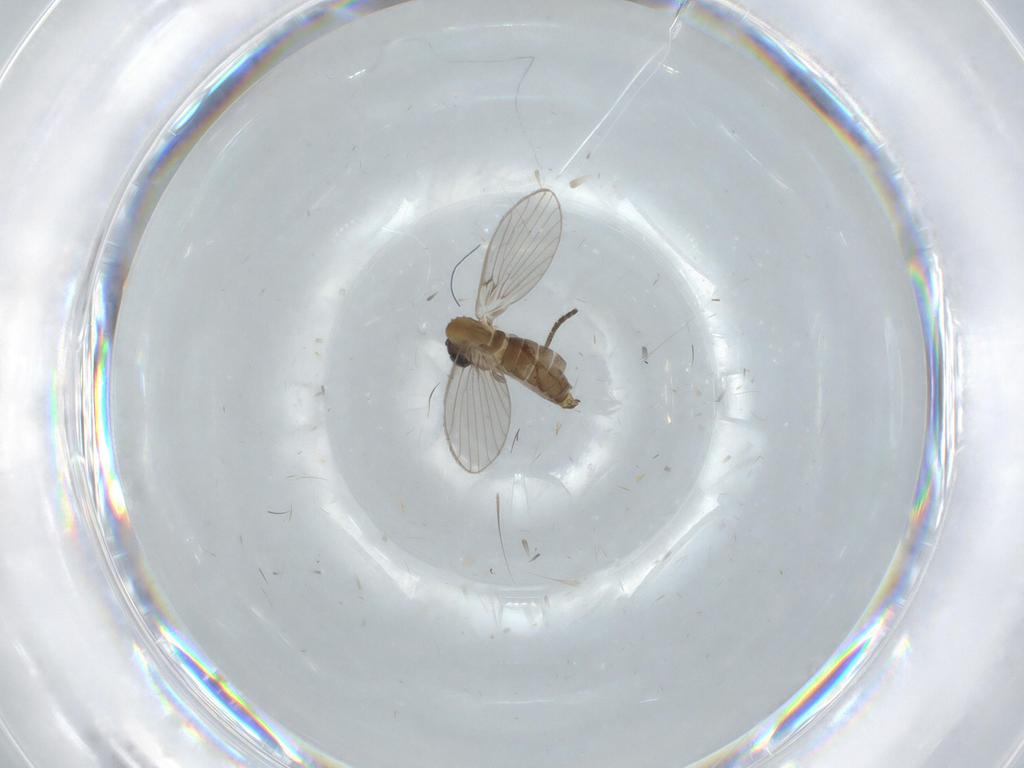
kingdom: Animalia
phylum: Arthropoda
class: Insecta
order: Diptera
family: Psychodidae
